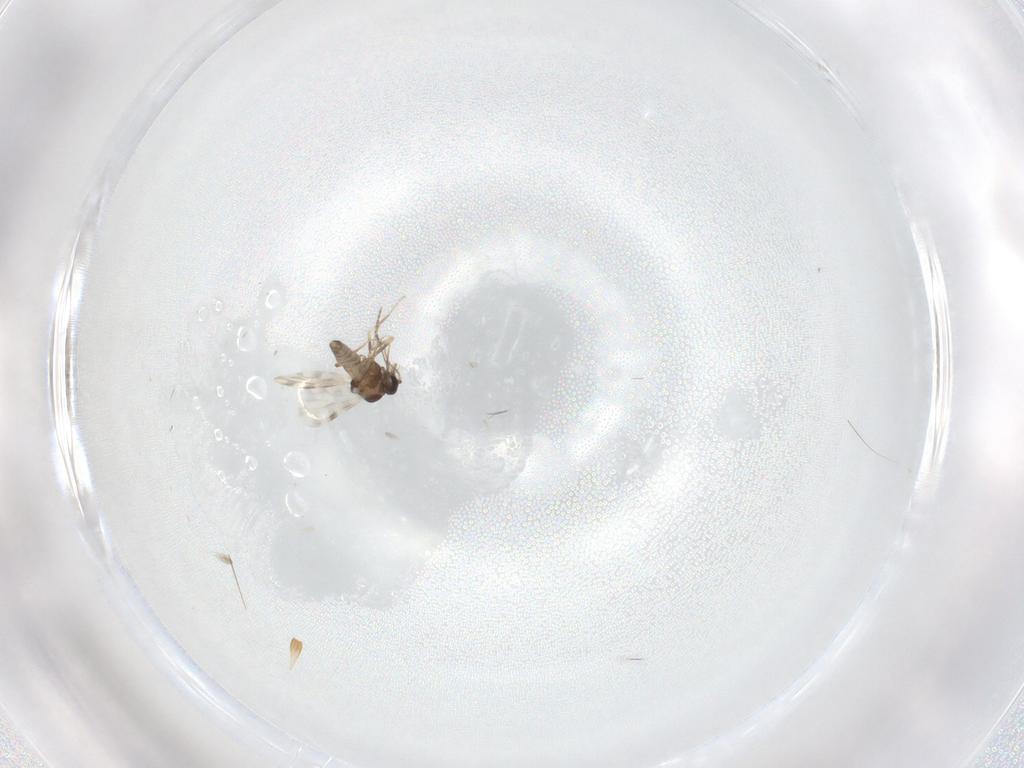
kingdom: Animalia
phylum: Arthropoda
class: Insecta
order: Diptera
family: Ceratopogonidae
